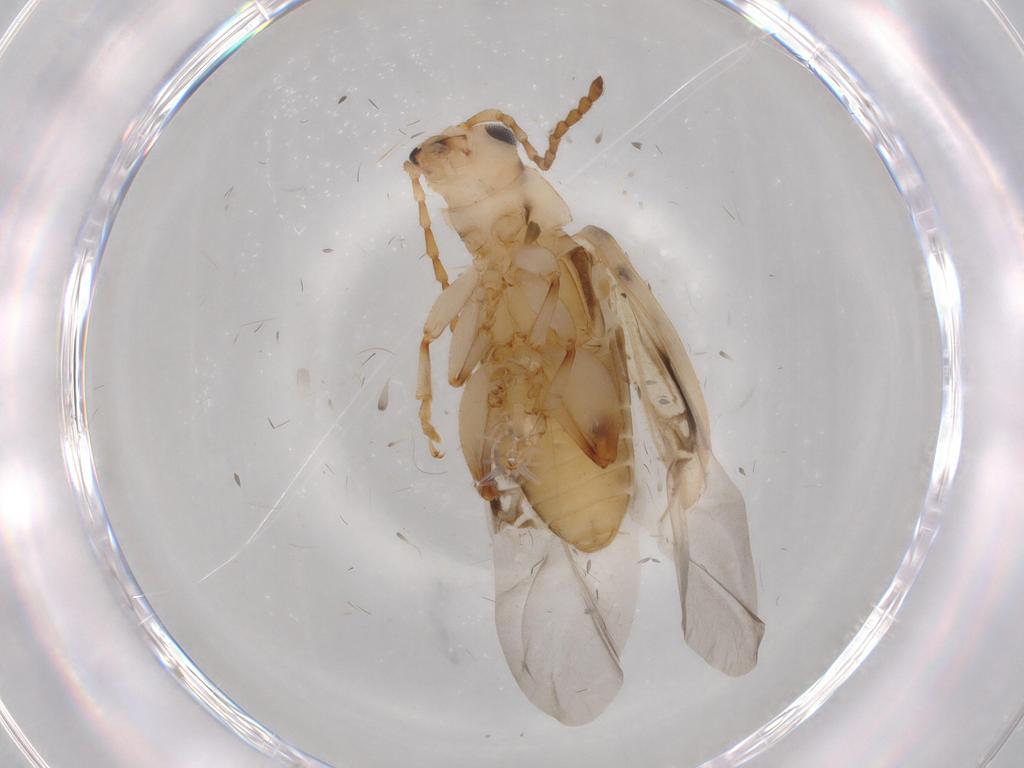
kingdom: Animalia
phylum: Arthropoda
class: Insecta
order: Coleoptera
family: Chrysomelidae
